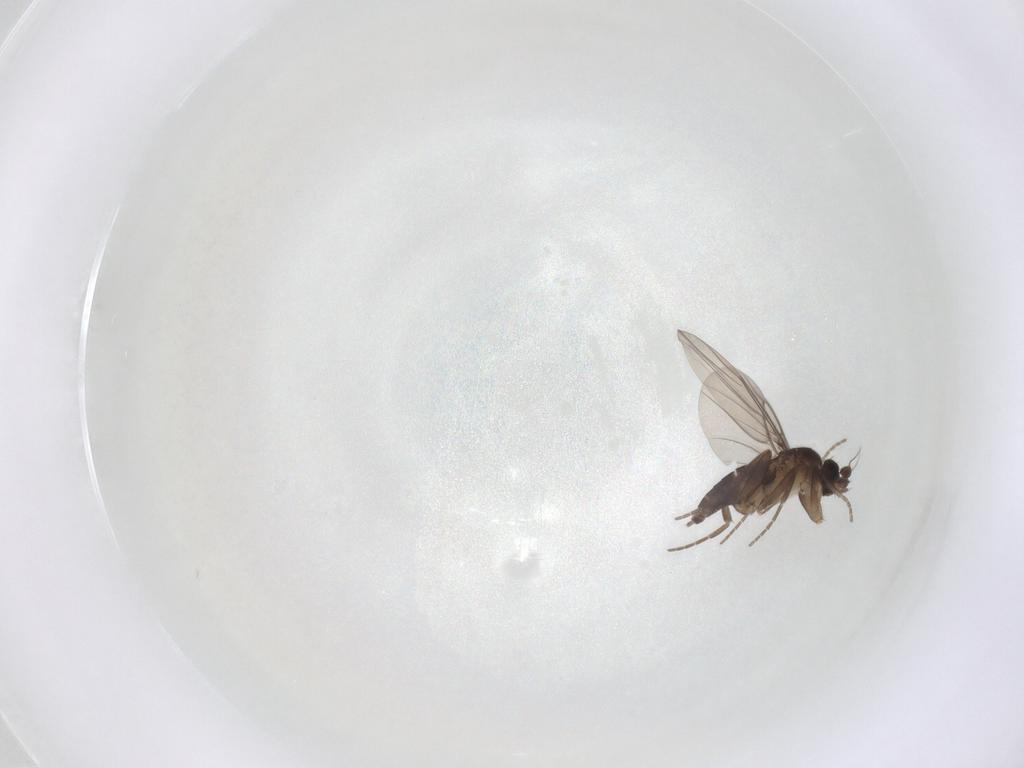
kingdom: Animalia
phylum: Arthropoda
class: Insecta
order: Diptera
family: Phoridae
